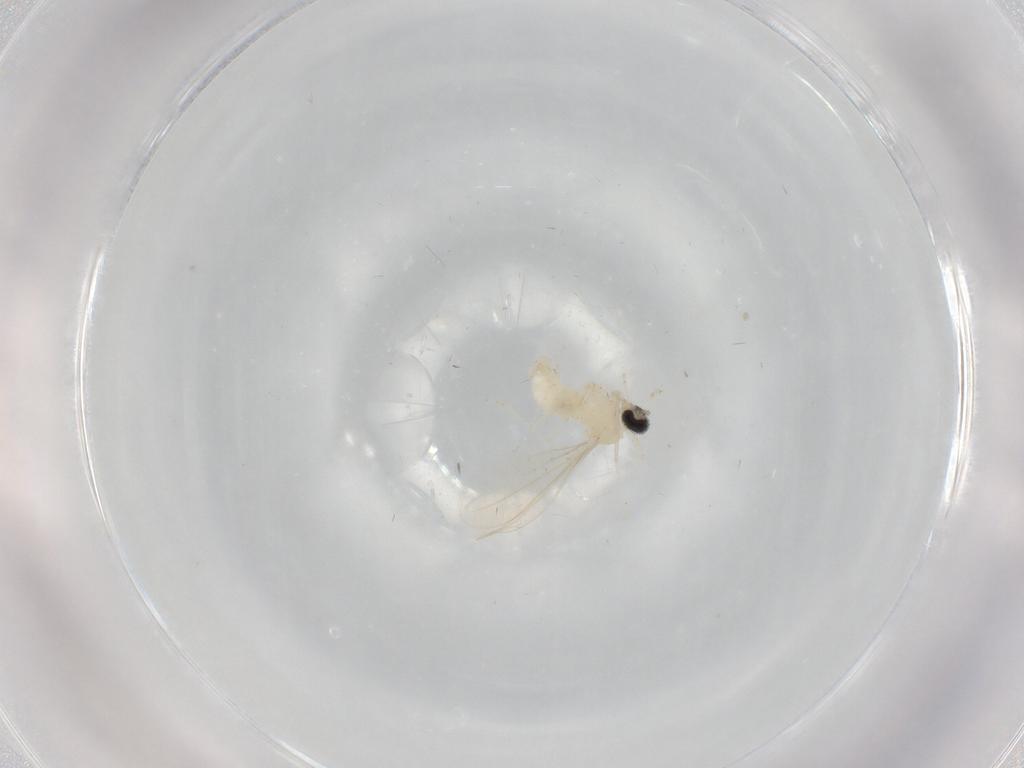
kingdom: Animalia
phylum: Arthropoda
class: Insecta
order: Diptera
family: Cecidomyiidae
